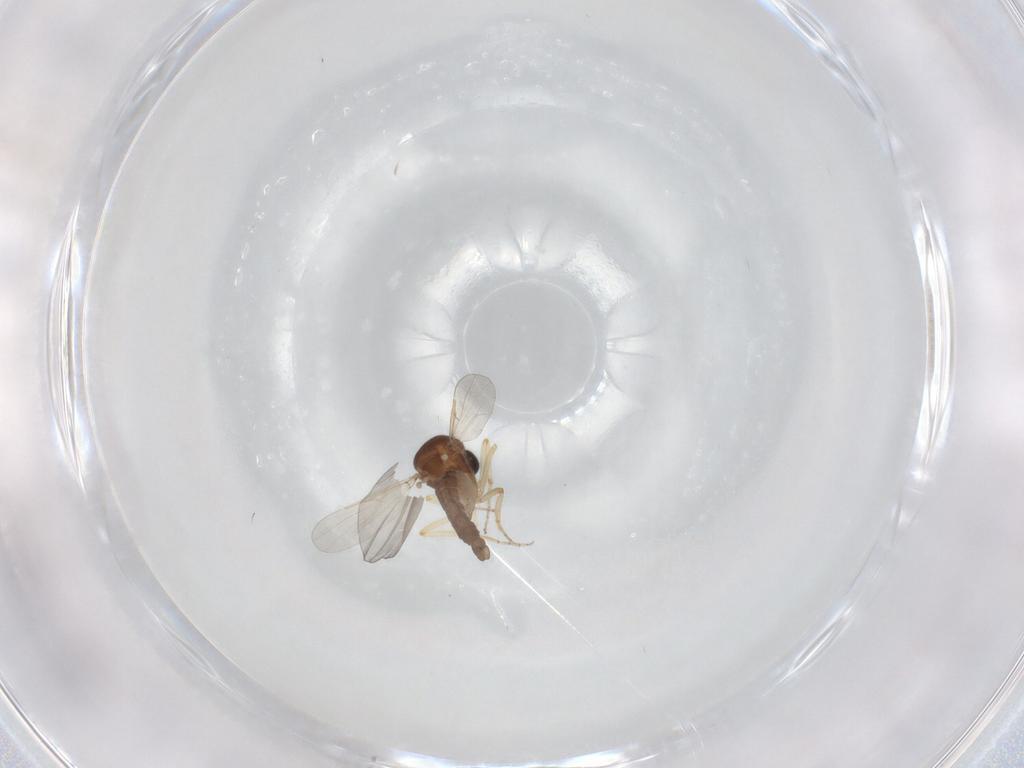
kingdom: Animalia
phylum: Arthropoda
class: Insecta
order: Diptera
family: Ceratopogonidae
